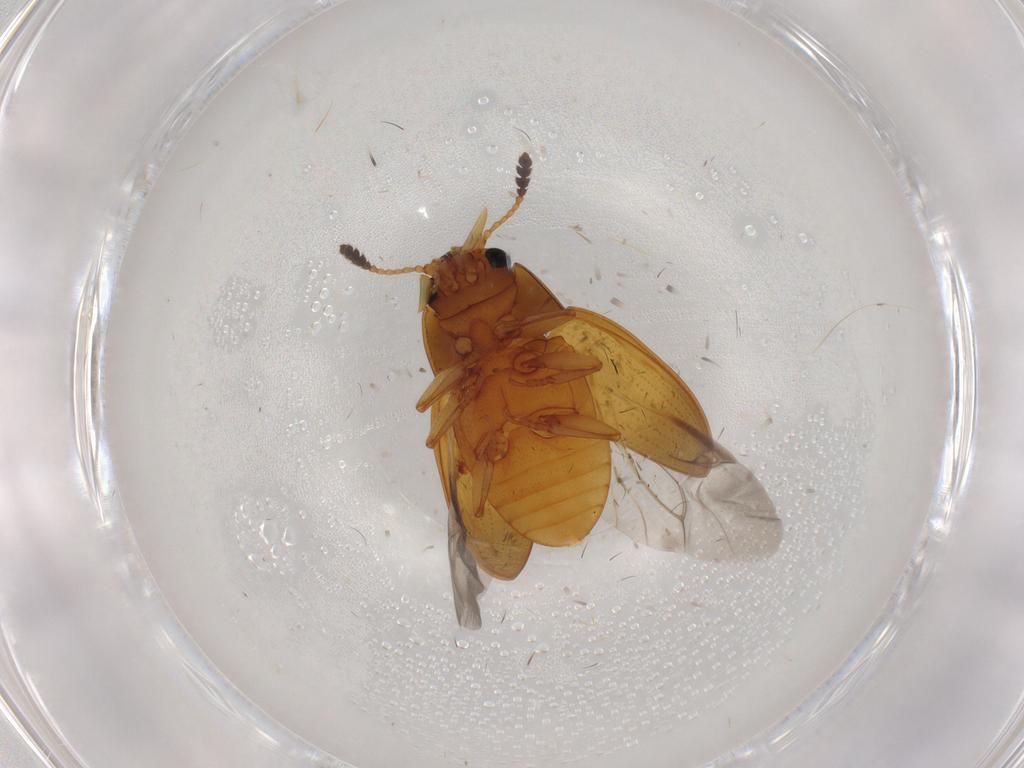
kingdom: Animalia
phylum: Arthropoda
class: Insecta
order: Coleoptera
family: Erotylidae
